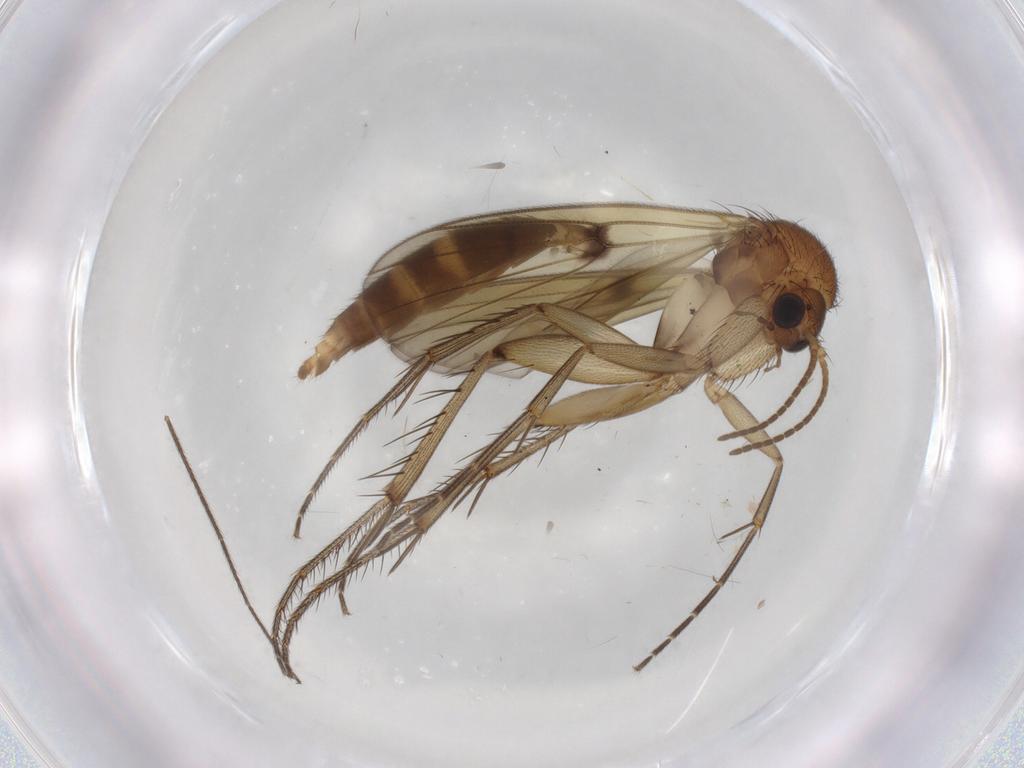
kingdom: Animalia
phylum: Arthropoda
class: Insecta
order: Diptera
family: Mycetophilidae
